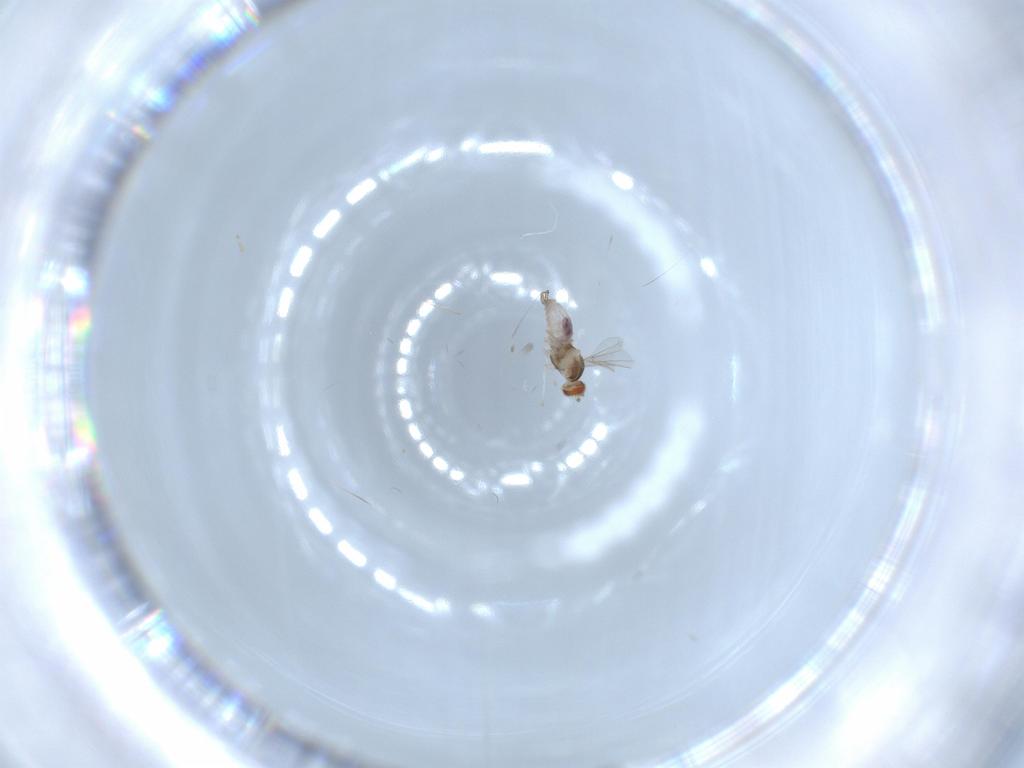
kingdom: Animalia
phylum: Arthropoda
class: Insecta
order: Diptera
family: Cecidomyiidae
